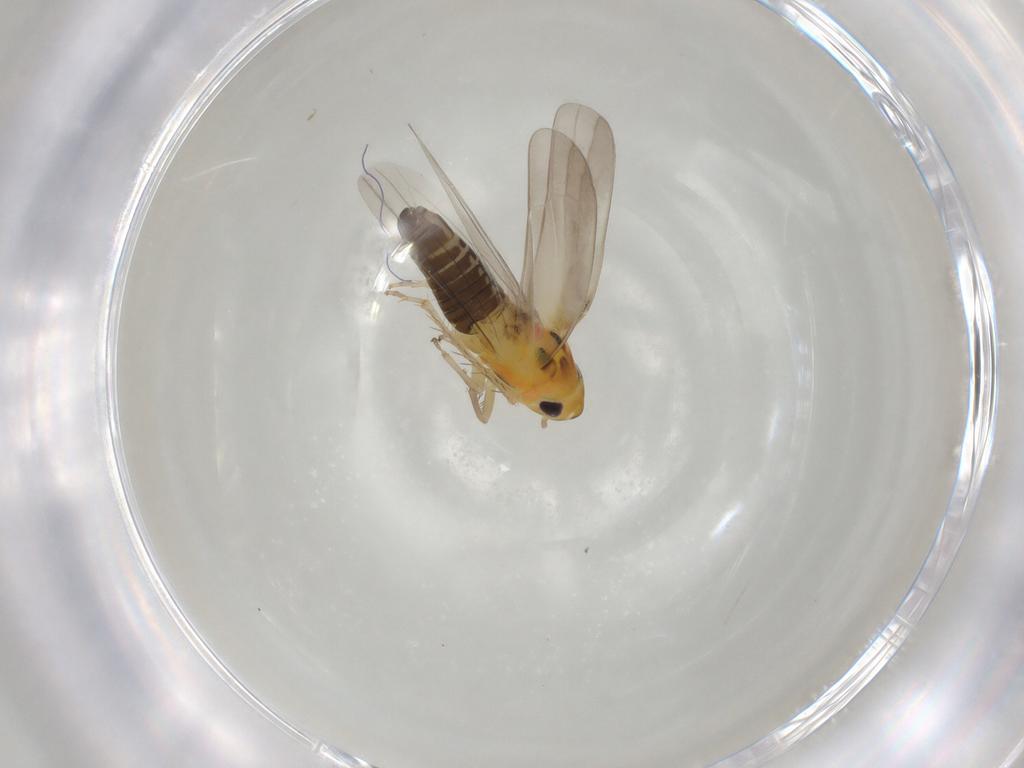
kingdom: Animalia
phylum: Arthropoda
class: Insecta
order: Hemiptera
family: Cicadellidae
